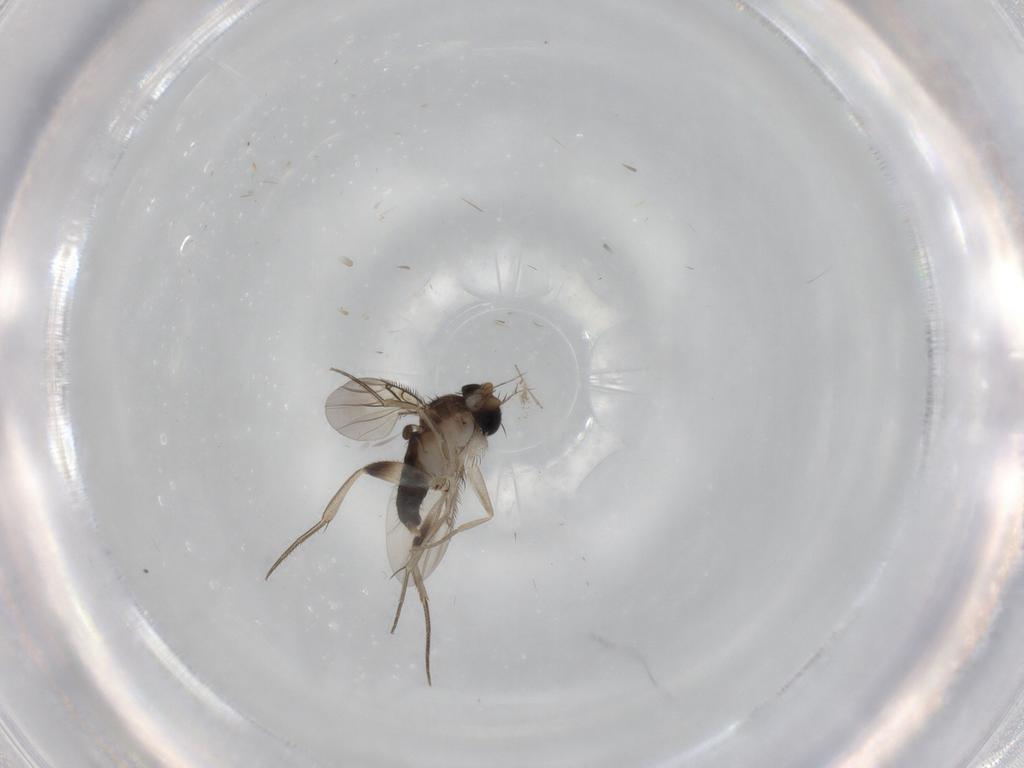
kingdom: Animalia
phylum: Arthropoda
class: Insecta
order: Diptera
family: Phoridae
